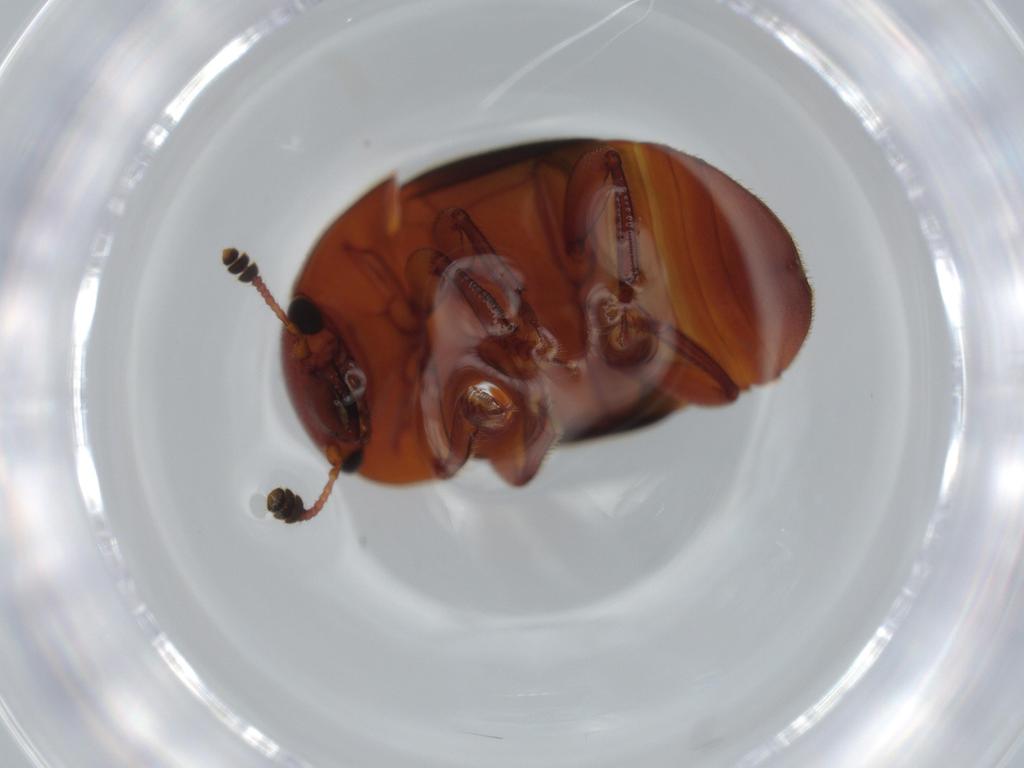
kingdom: Animalia
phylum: Arthropoda
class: Insecta
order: Coleoptera
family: Nitidulidae
